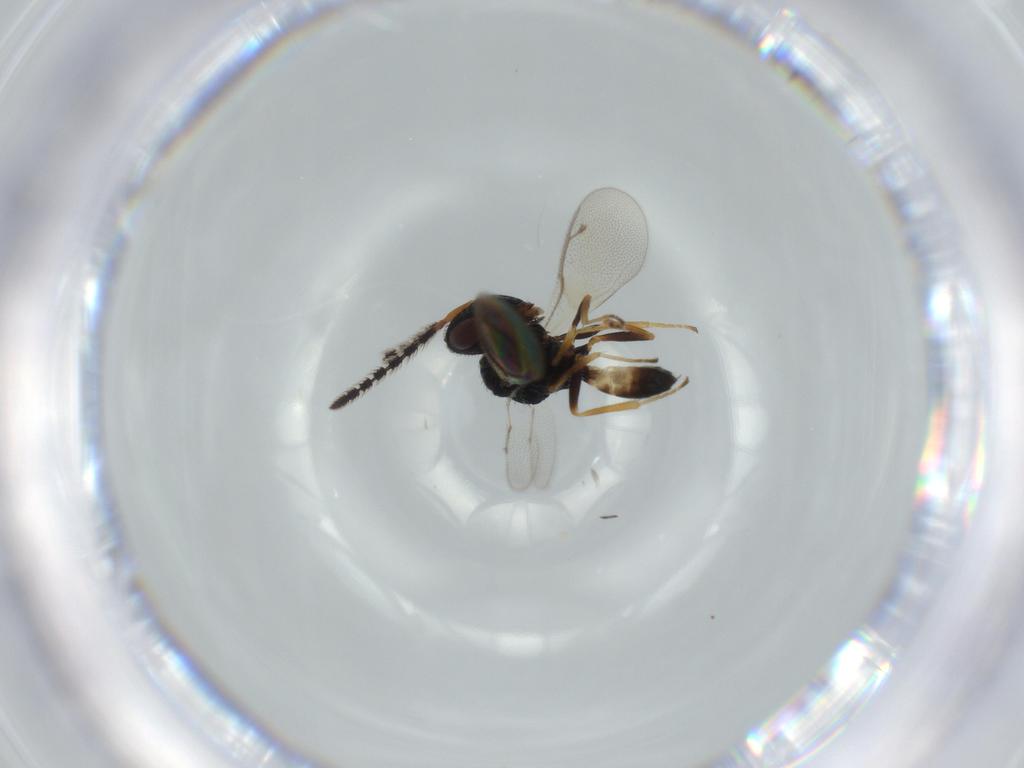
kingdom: Animalia
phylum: Arthropoda
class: Insecta
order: Hymenoptera
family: Pteromalidae
